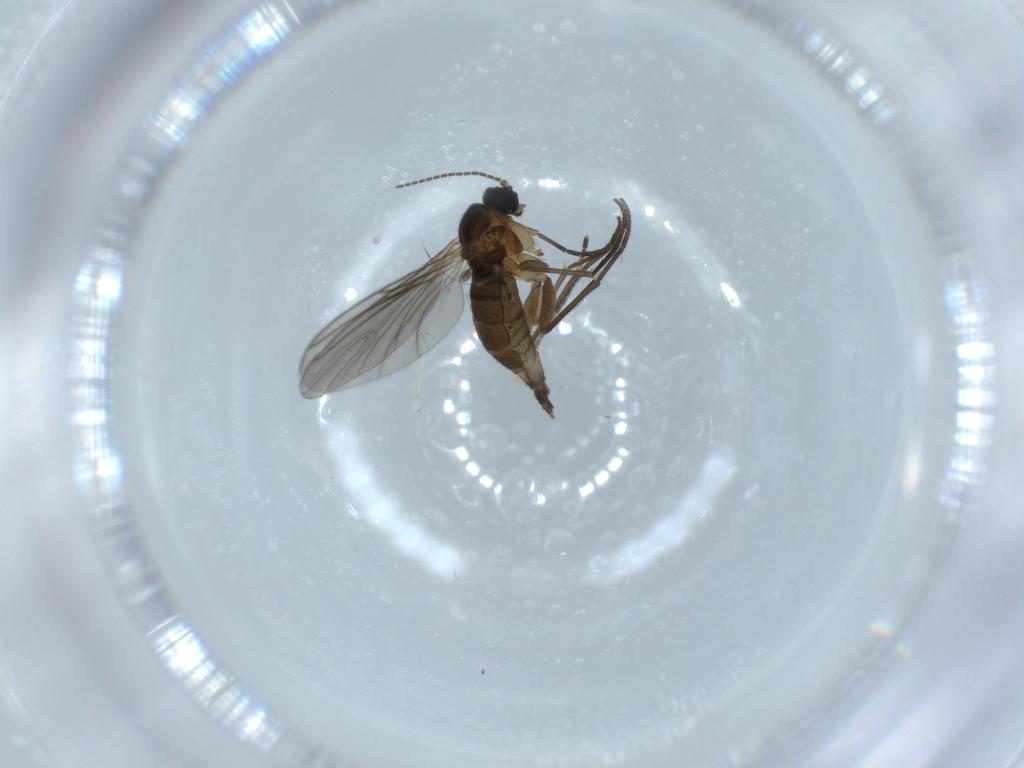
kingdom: Animalia
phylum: Arthropoda
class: Insecta
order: Diptera
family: Sciaridae
